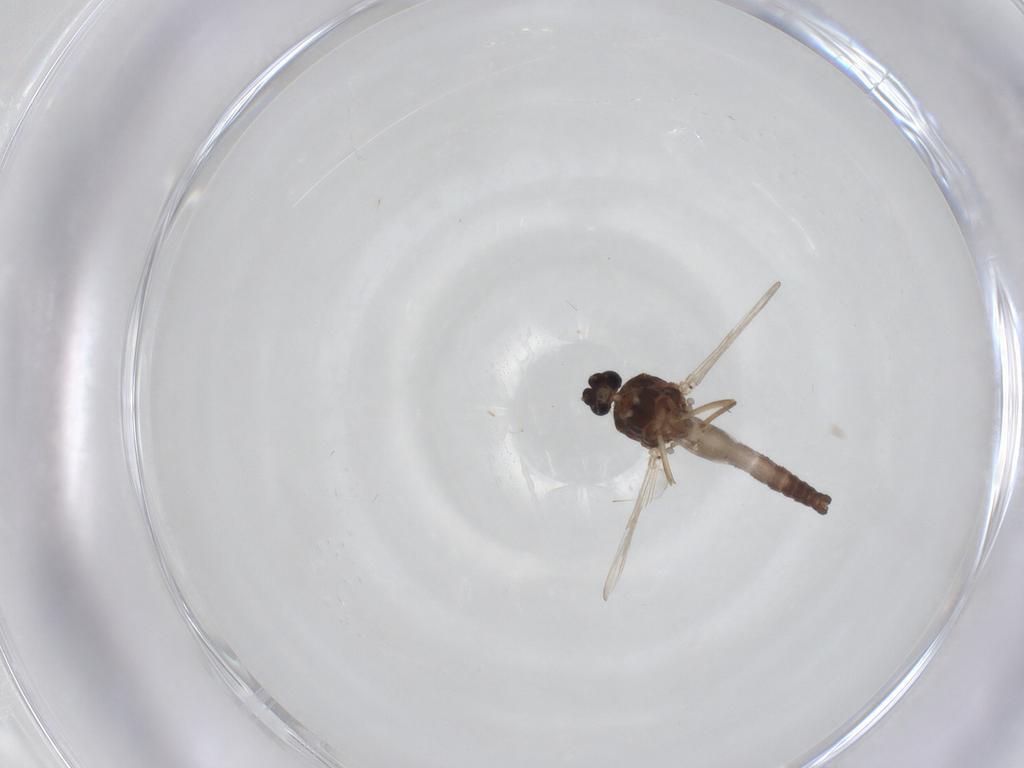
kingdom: Animalia
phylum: Arthropoda
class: Insecta
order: Diptera
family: Ceratopogonidae
